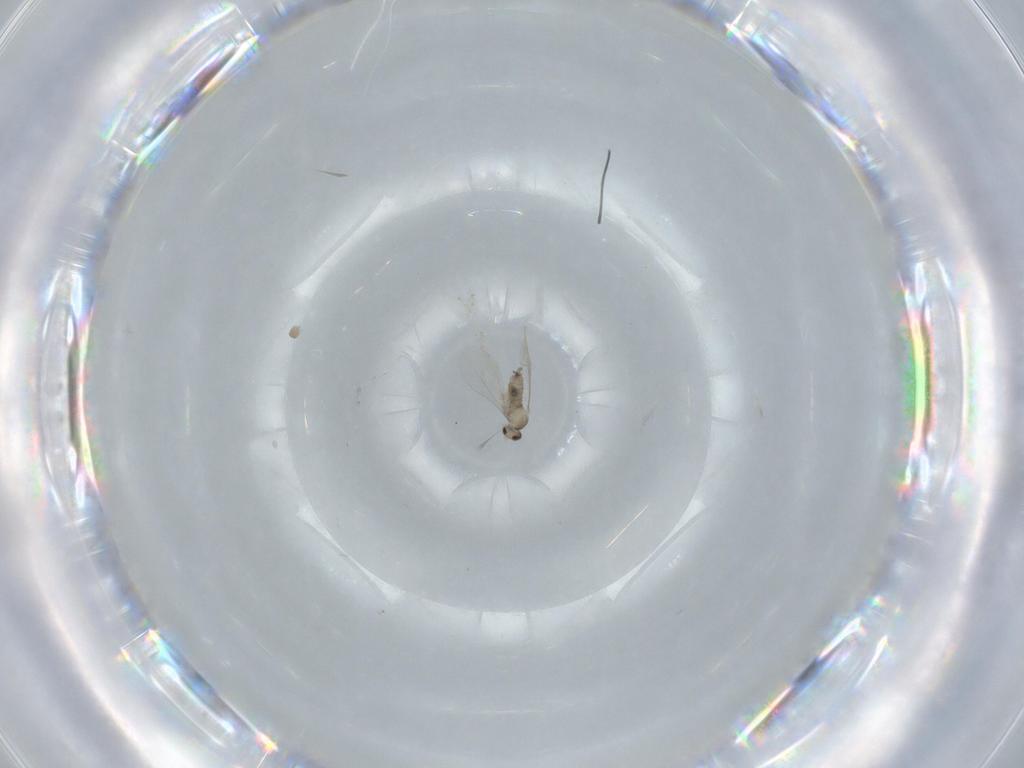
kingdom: Animalia
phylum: Arthropoda
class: Insecta
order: Diptera
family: Cecidomyiidae
